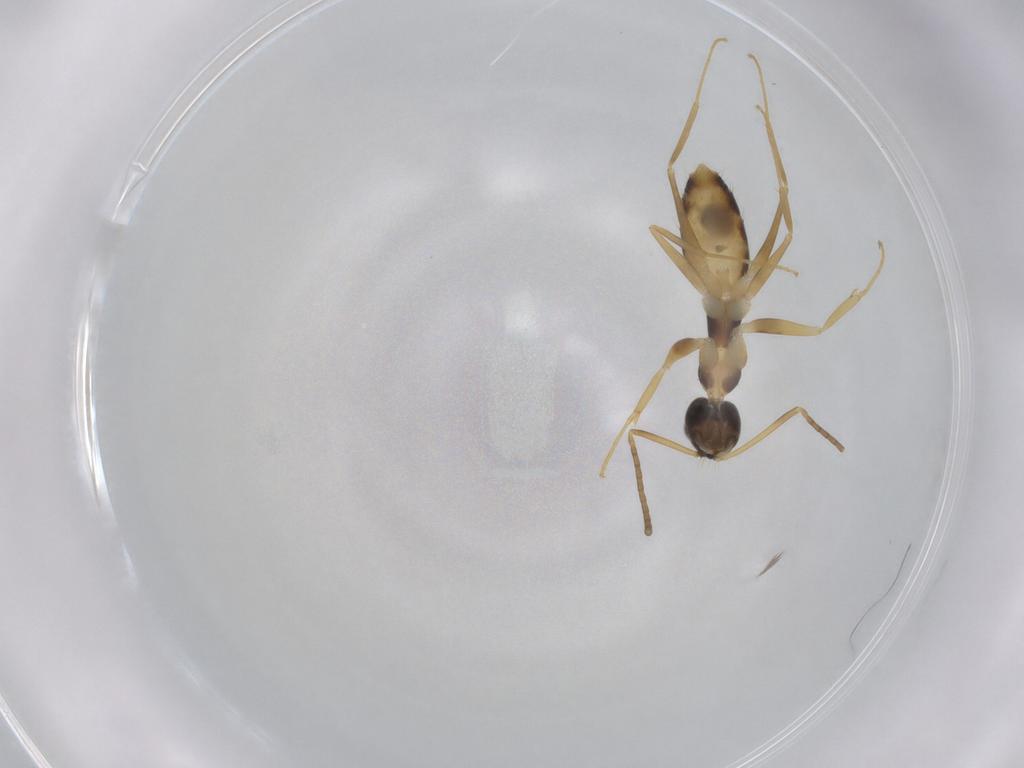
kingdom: Animalia
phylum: Arthropoda
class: Insecta
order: Hymenoptera
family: Formicidae
